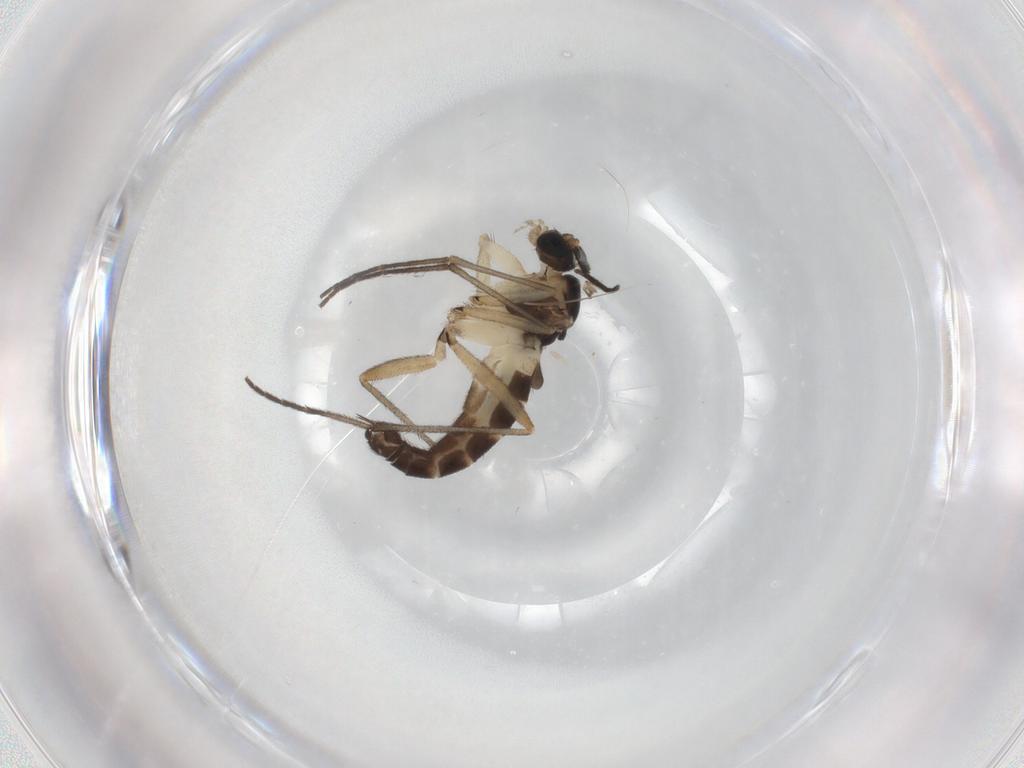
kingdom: Animalia
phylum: Arthropoda
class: Insecta
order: Diptera
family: Sciaridae
